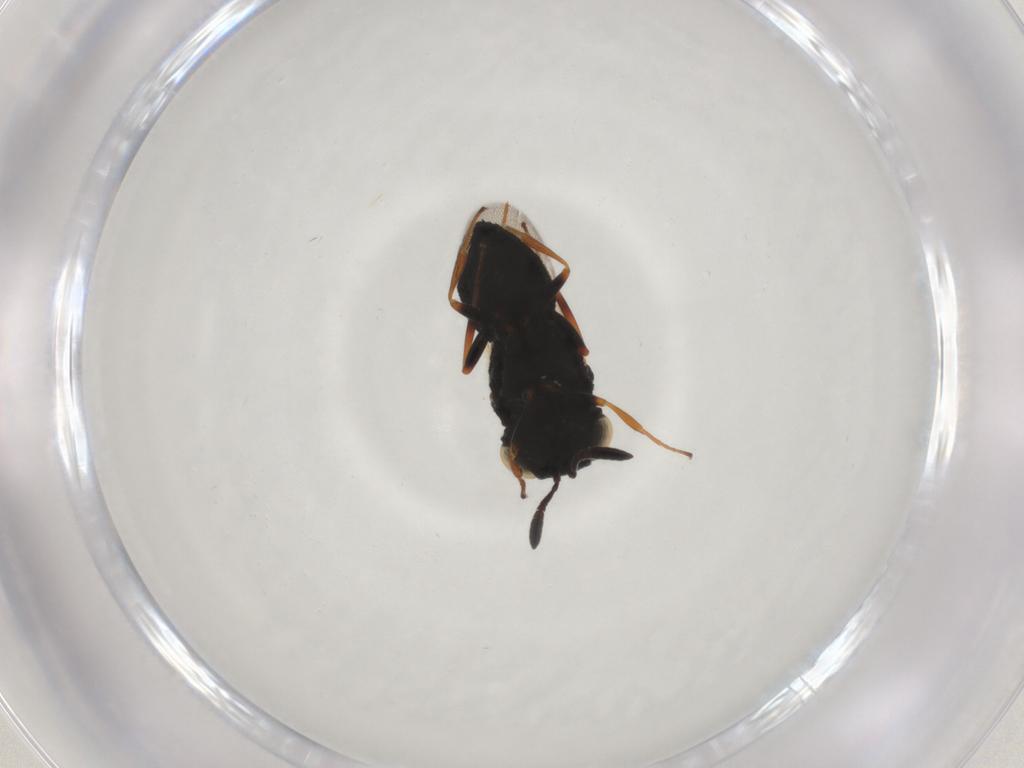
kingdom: Animalia
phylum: Arthropoda
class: Insecta
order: Hymenoptera
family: Scelionidae
